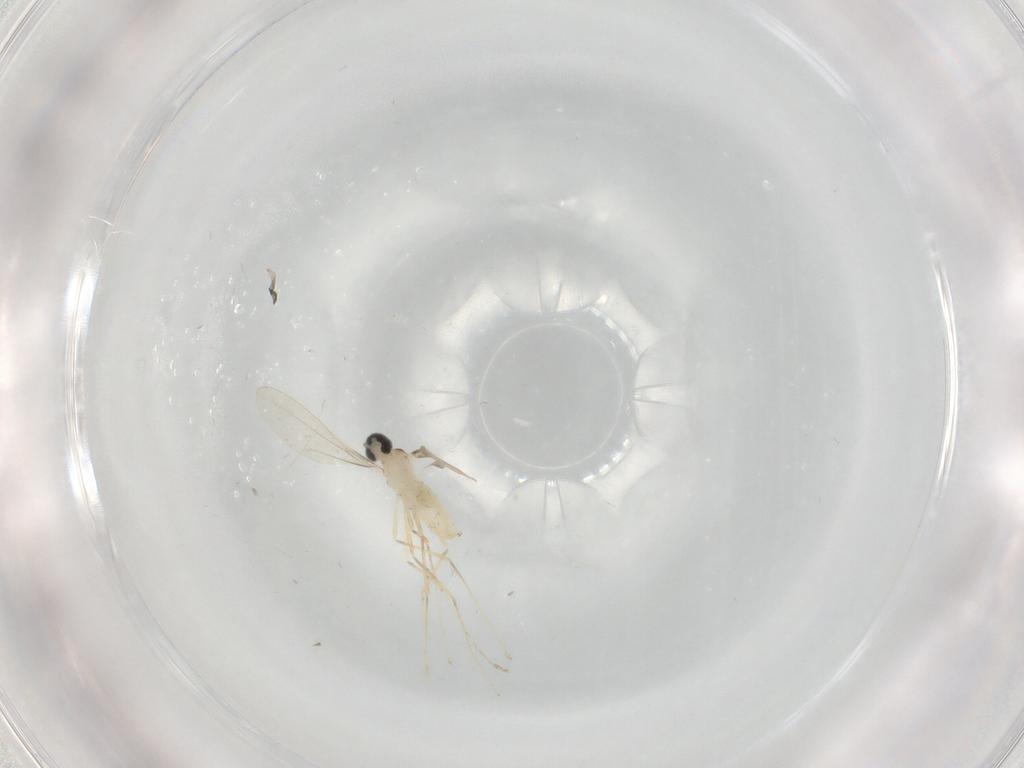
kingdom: Animalia
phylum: Arthropoda
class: Insecta
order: Diptera
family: Cecidomyiidae
